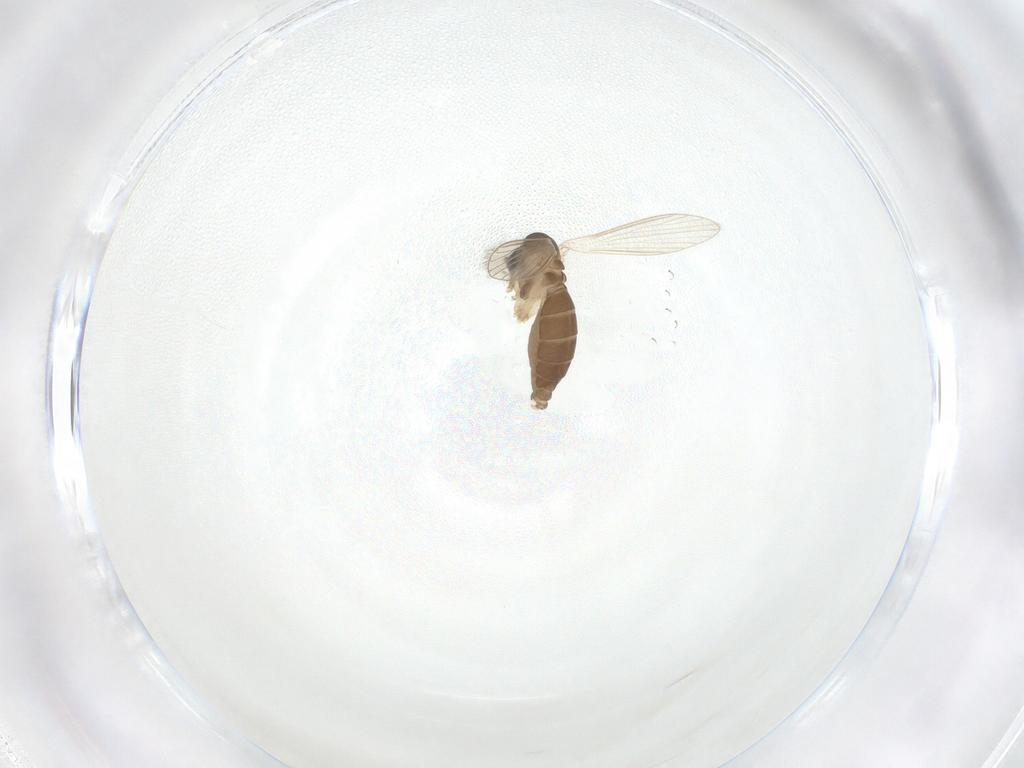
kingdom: Animalia
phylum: Arthropoda
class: Insecta
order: Diptera
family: Psychodidae
